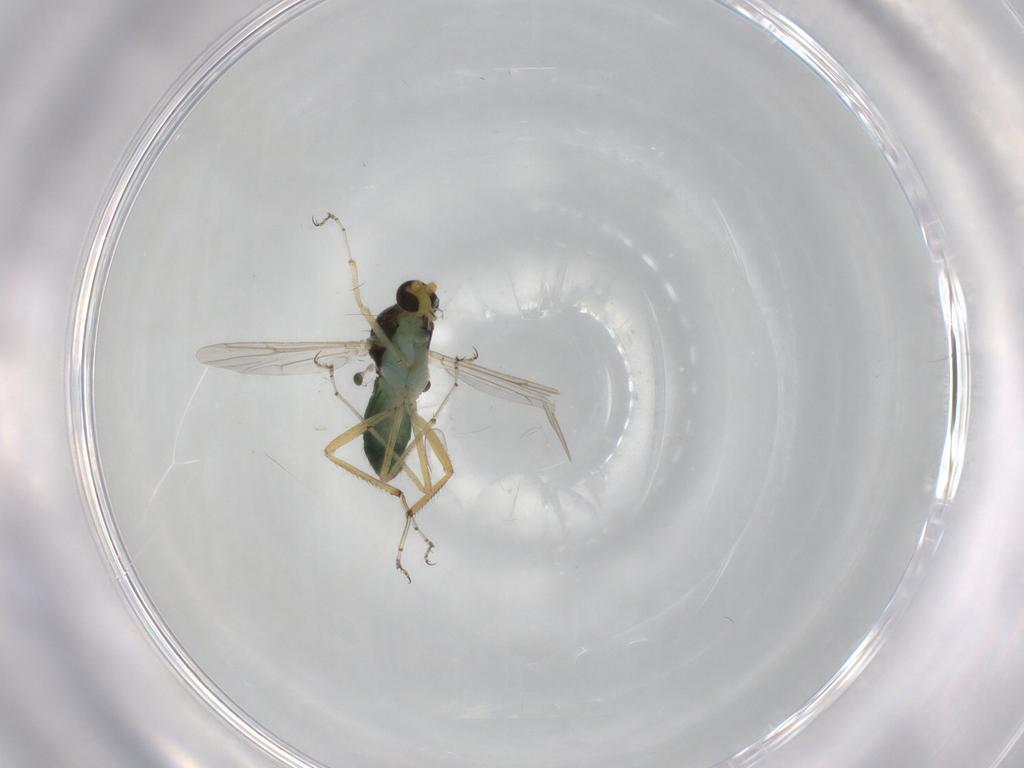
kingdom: Animalia
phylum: Arthropoda
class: Insecta
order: Diptera
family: Ceratopogonidae
